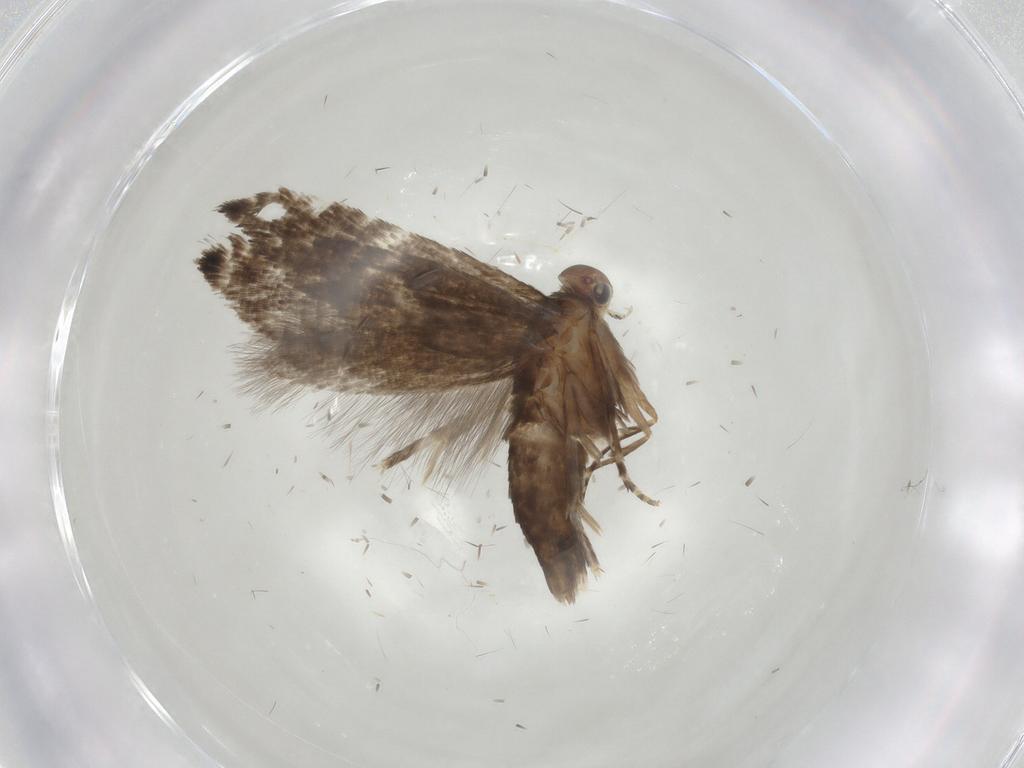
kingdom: Animalia
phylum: Arthropoda
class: Insecta
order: Lepidoptera
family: Glyphipterigidae
